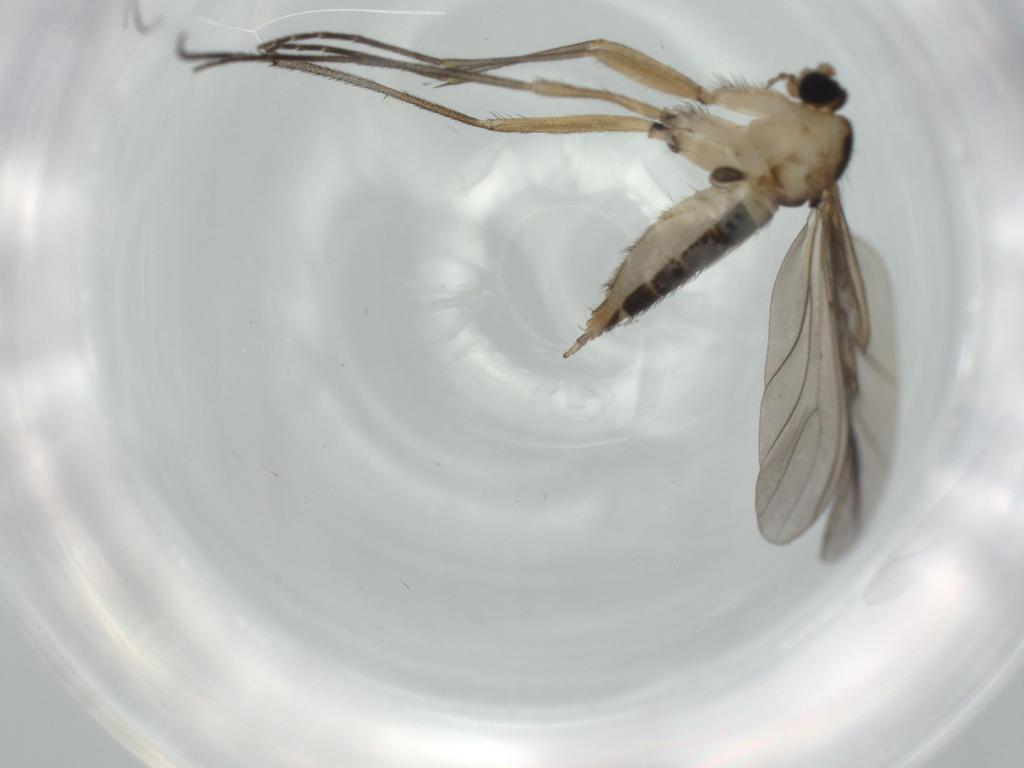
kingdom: Animalia
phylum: Arthropoda
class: Insecta
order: Diptera
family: Sciaridae
